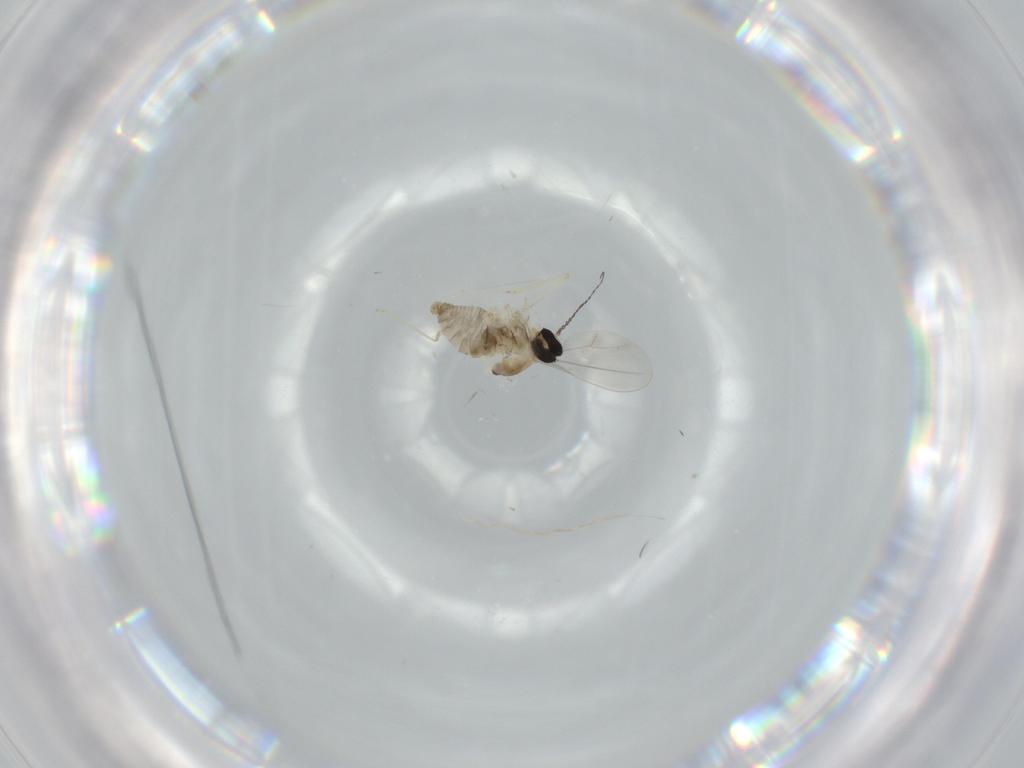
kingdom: Animalia
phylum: Arthropoda
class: Insecta
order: Diptera
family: Cecidomyiidae
